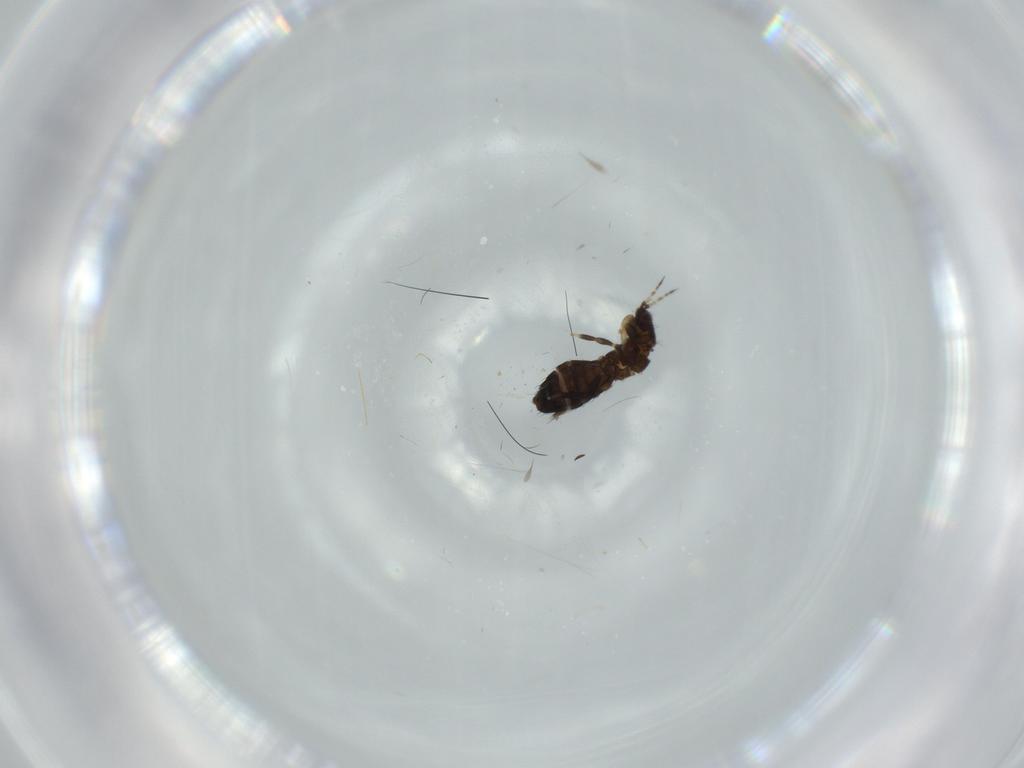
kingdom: Animalia
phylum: Arthropoda
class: Insecta
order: Thysanoptera
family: Thripidae
